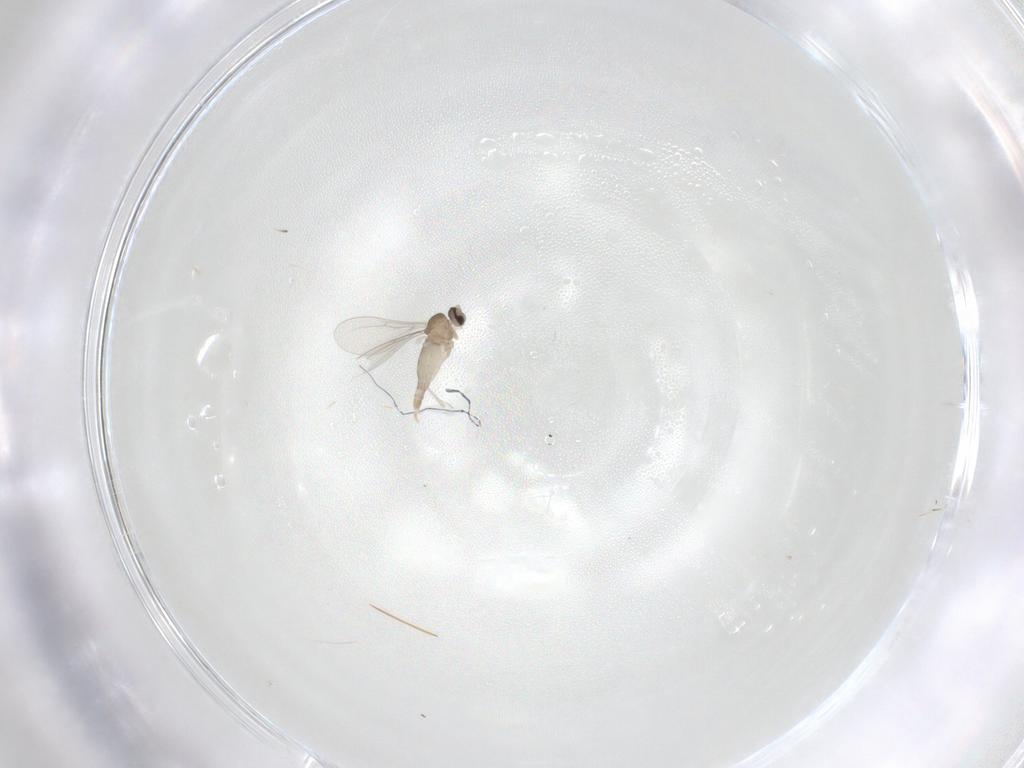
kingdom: Animalia
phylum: Arthropoda
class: Insecta
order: Diptera
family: Cecidomyiidae
